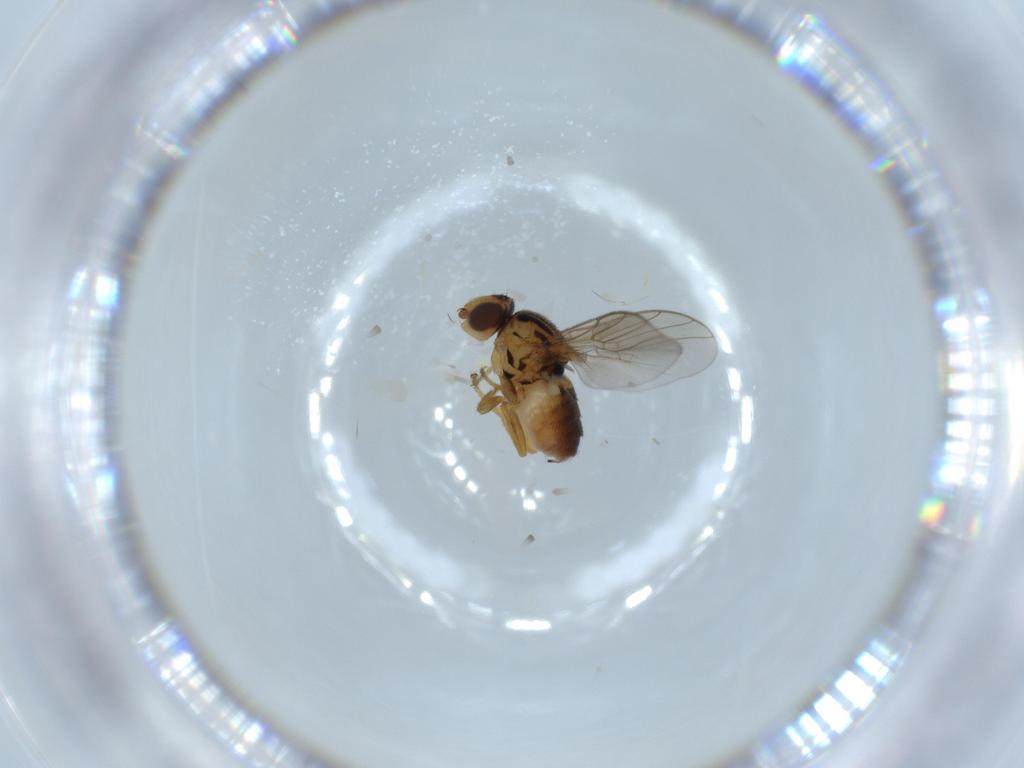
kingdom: Animalia
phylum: Arthropoda
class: Insecta
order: Diptera
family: Chloropidae
